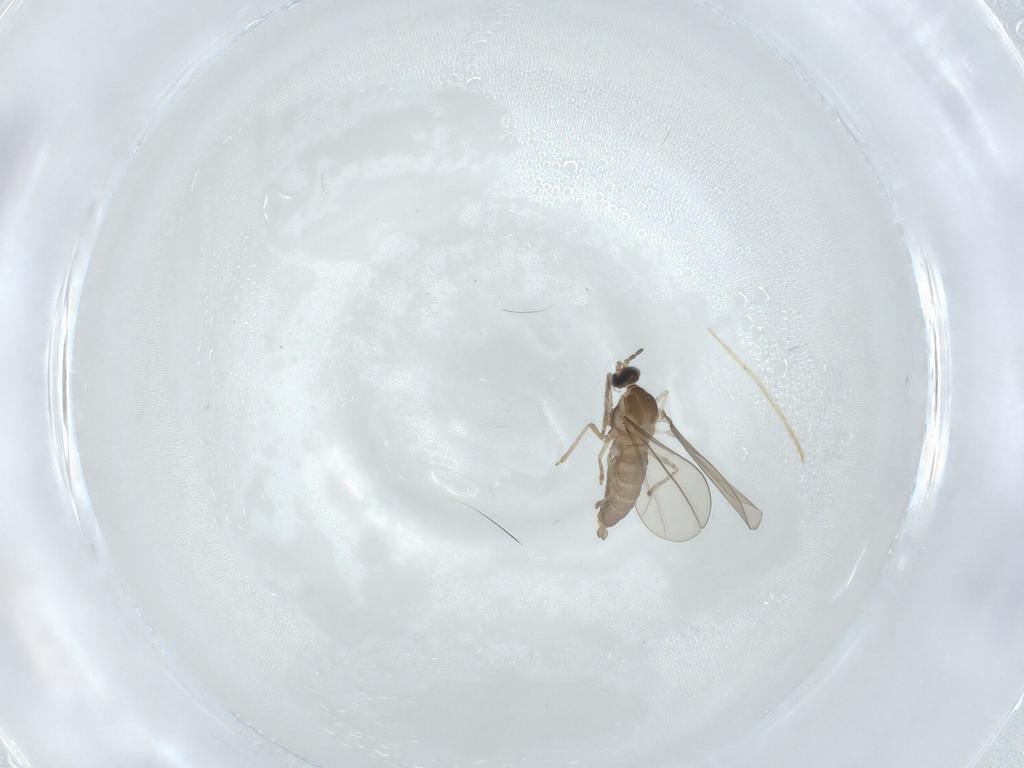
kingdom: Animalia
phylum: Arthropoda
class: Insecta
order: Diptera
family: Cecidomyiidae
